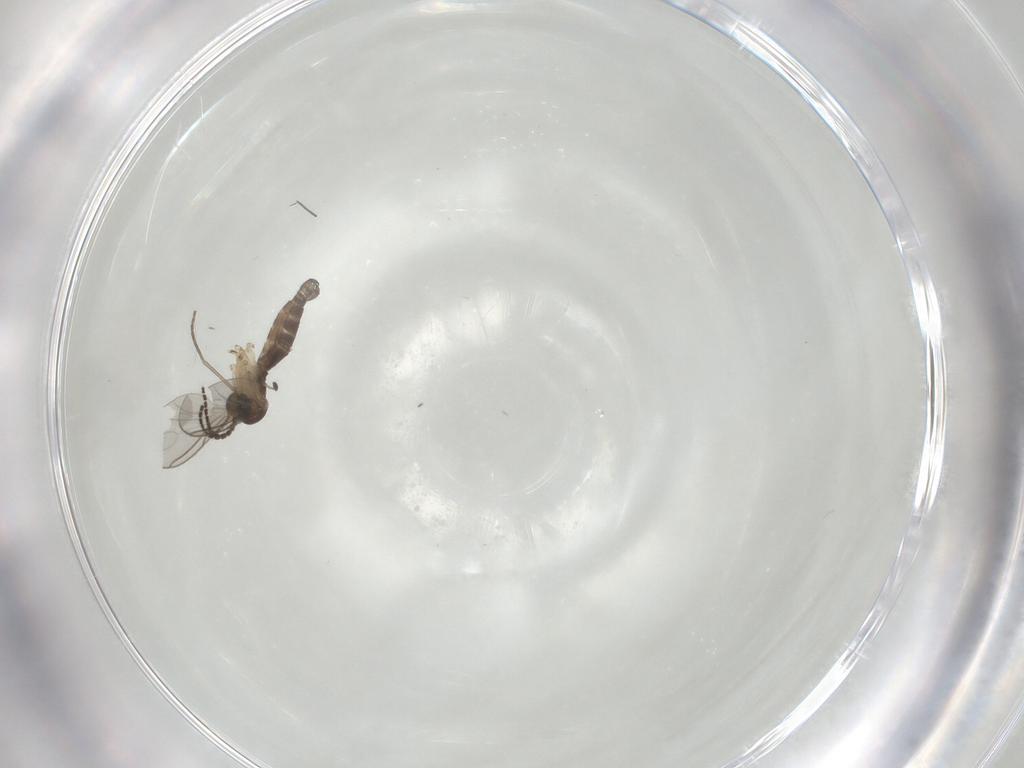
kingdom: Animalia
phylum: Arthropoda
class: Insecta
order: Diptera
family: Sciaridae
